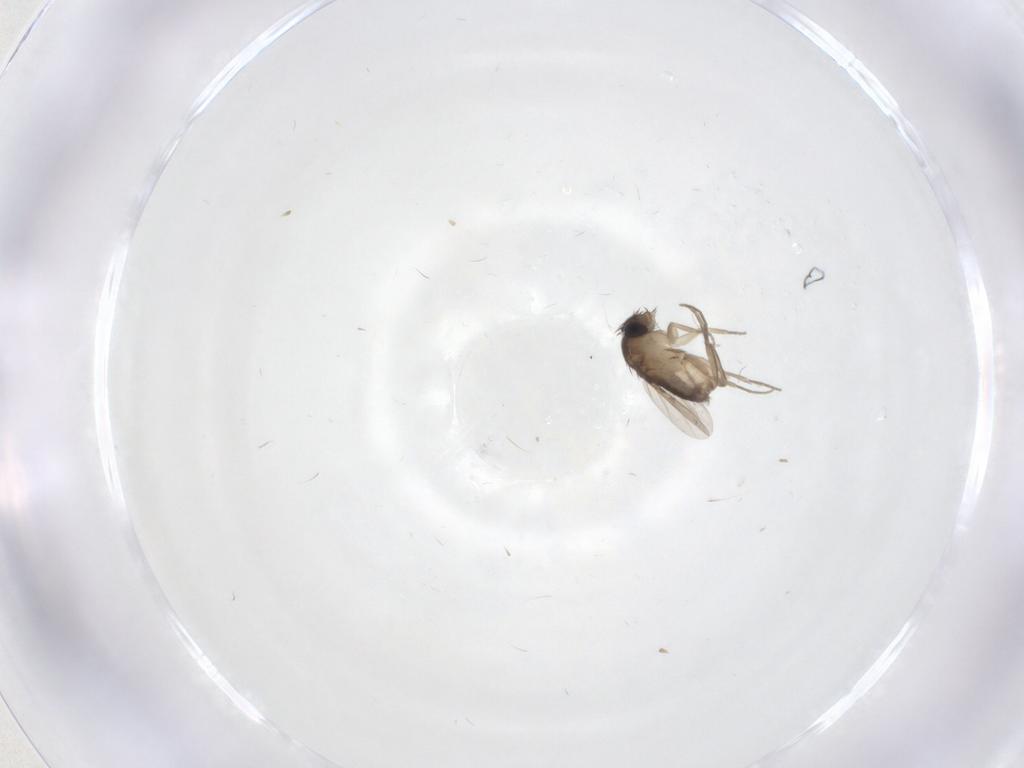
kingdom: Animalia
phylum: Arthropoda
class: Insecta
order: Diptera
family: Phoridae
